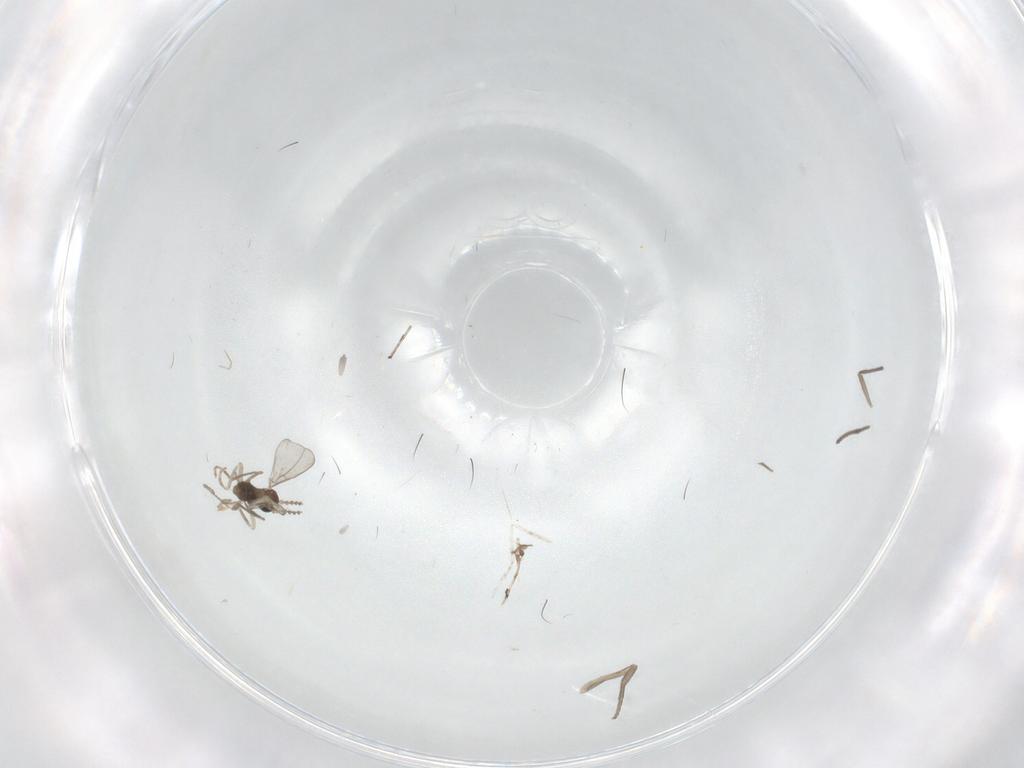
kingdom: Animalia
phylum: Arthropoda
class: Insecta
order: Diptera
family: Cecidomyiidae
